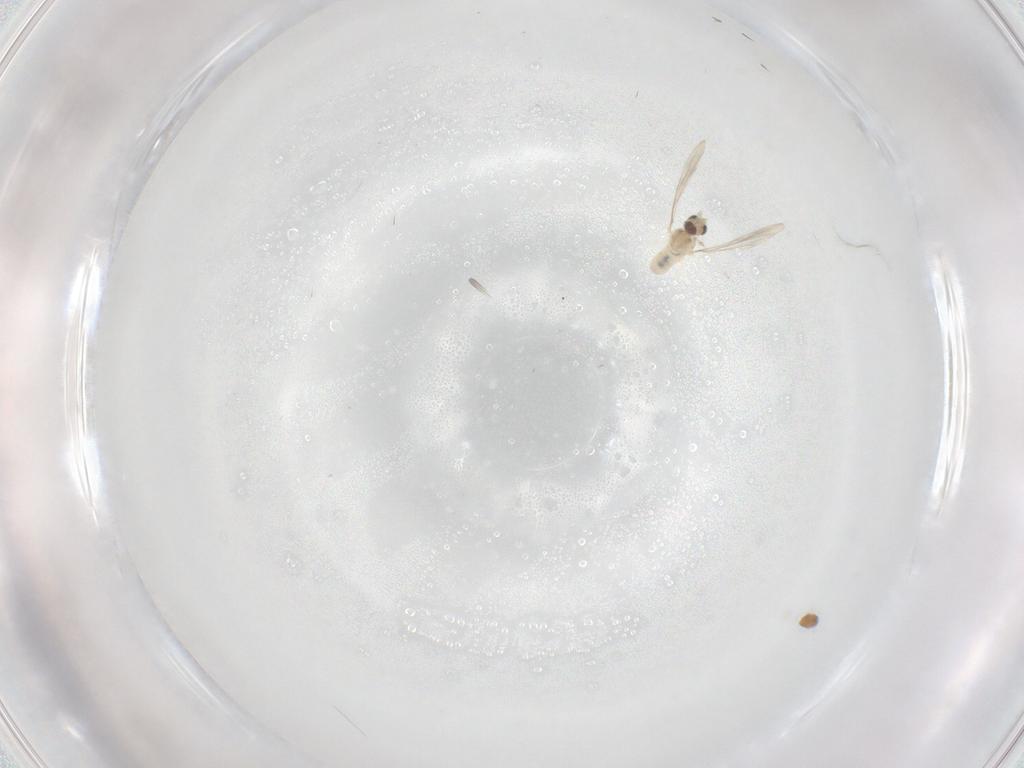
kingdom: Animalia
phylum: Arthropoda
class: Insecta
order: Diptera
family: Cecidomyiidae
